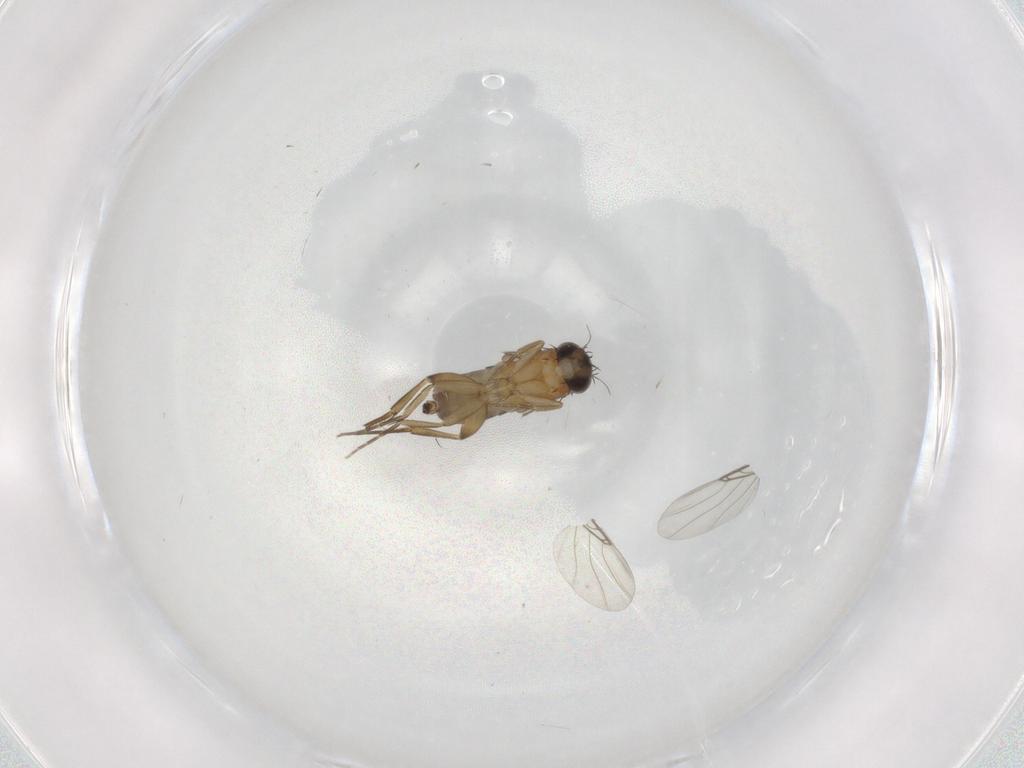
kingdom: Animalia
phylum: Arthropoda
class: Insecta
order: Diptera
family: Phoridae
